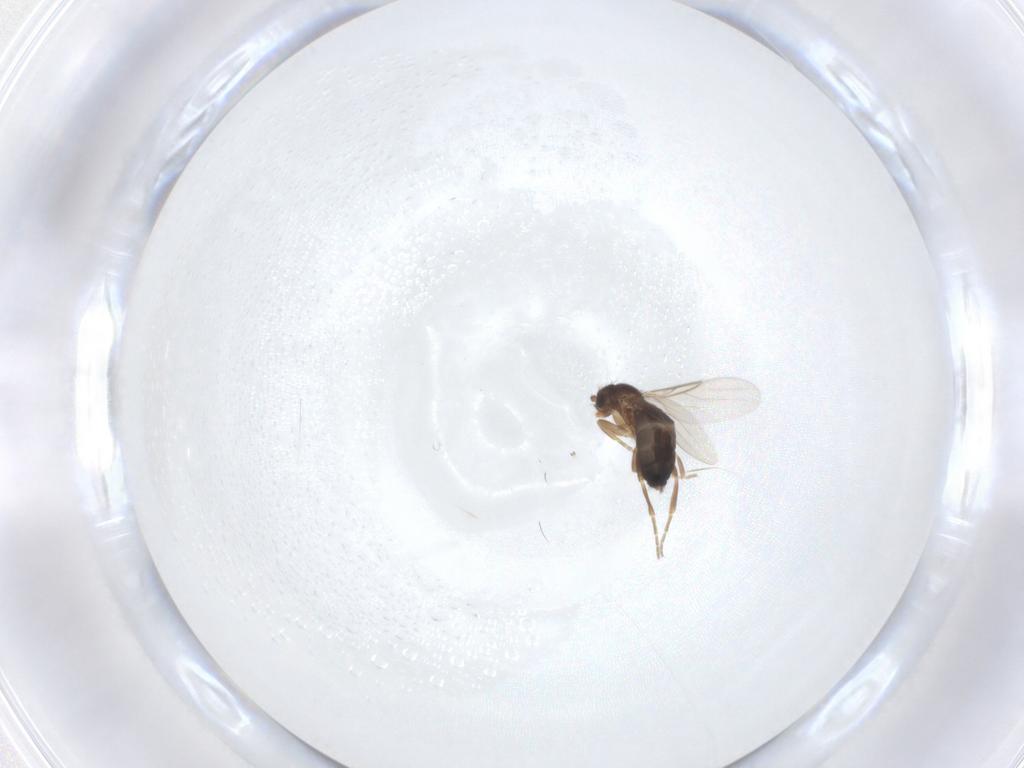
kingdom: Animalia
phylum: Arthropoda
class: Insecta
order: Diptera
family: Phoridae
